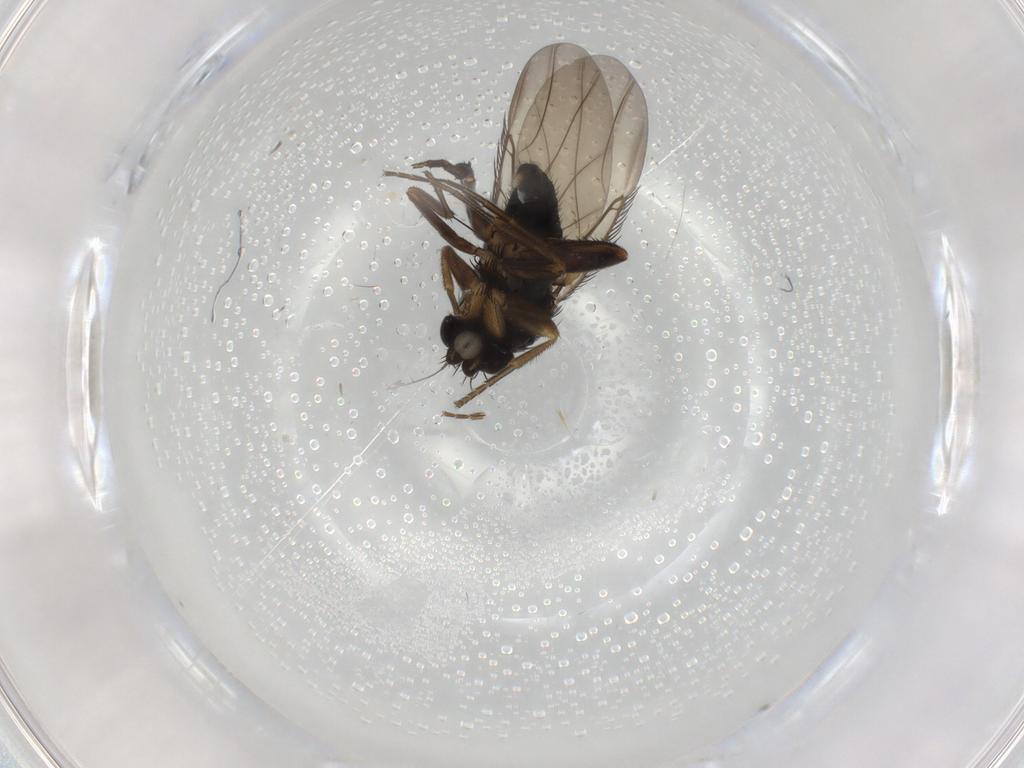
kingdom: Animalia
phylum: Arthropoda
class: Insecta
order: Diptera
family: Phoridae
